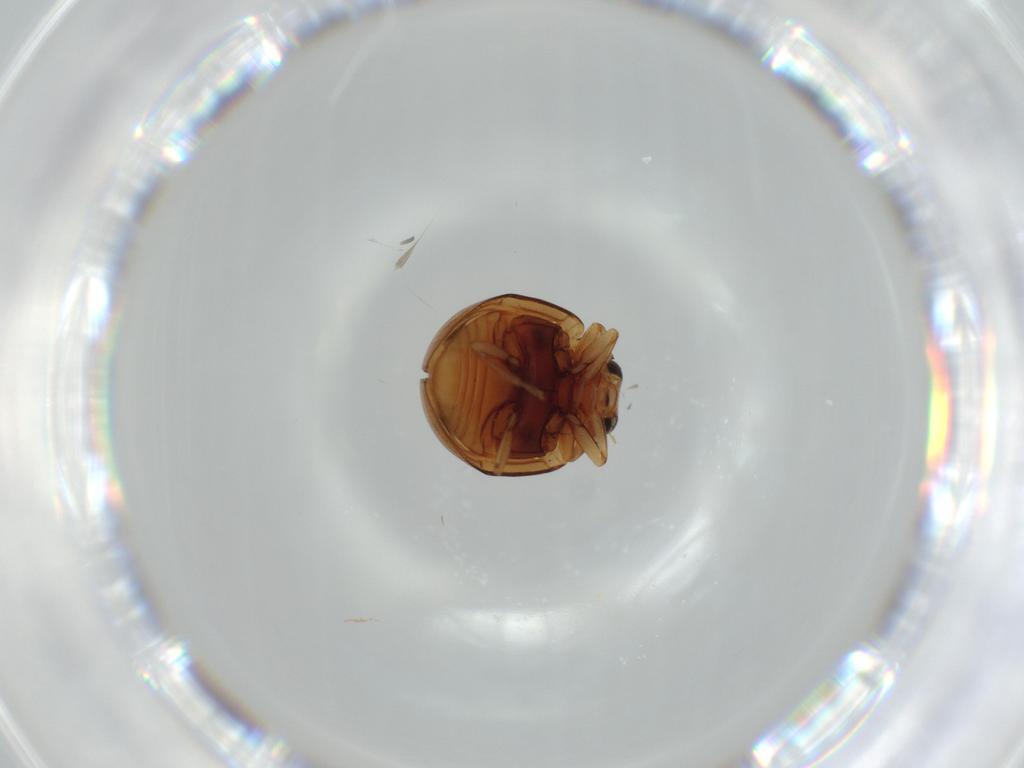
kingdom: Animalia
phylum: Arthropoda
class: Insecta
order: Coleoptera
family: Coccinellidae
